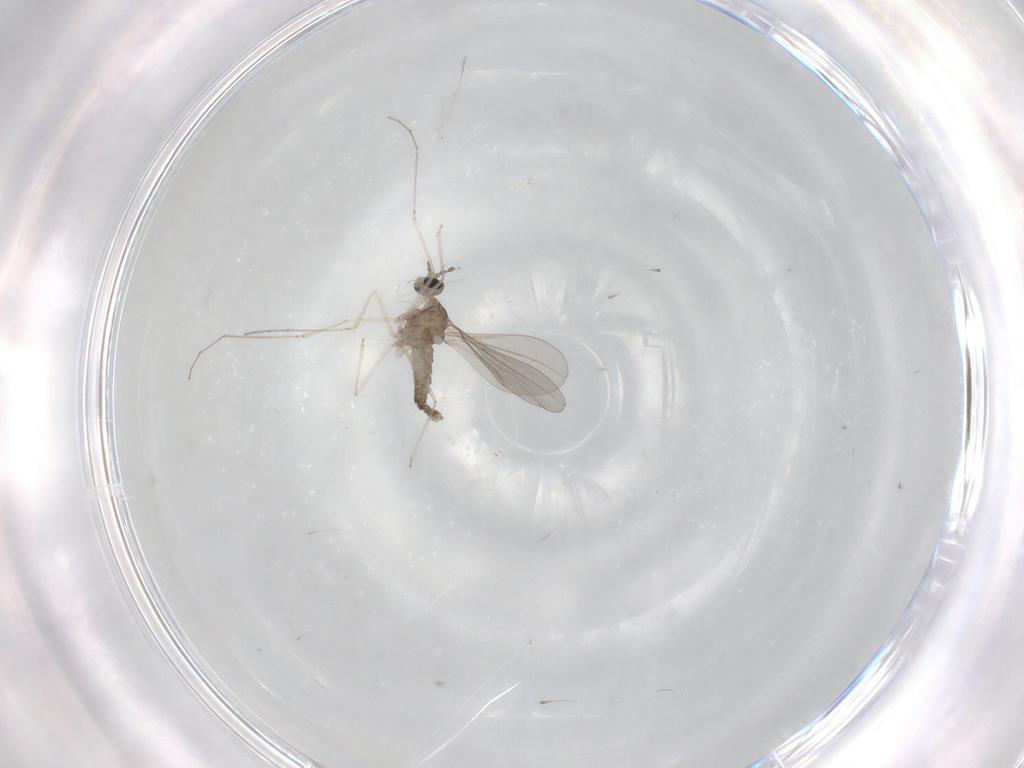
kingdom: Animalia
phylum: Arthropoda
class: Insecta
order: Diptera
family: Cecidomyiidae
